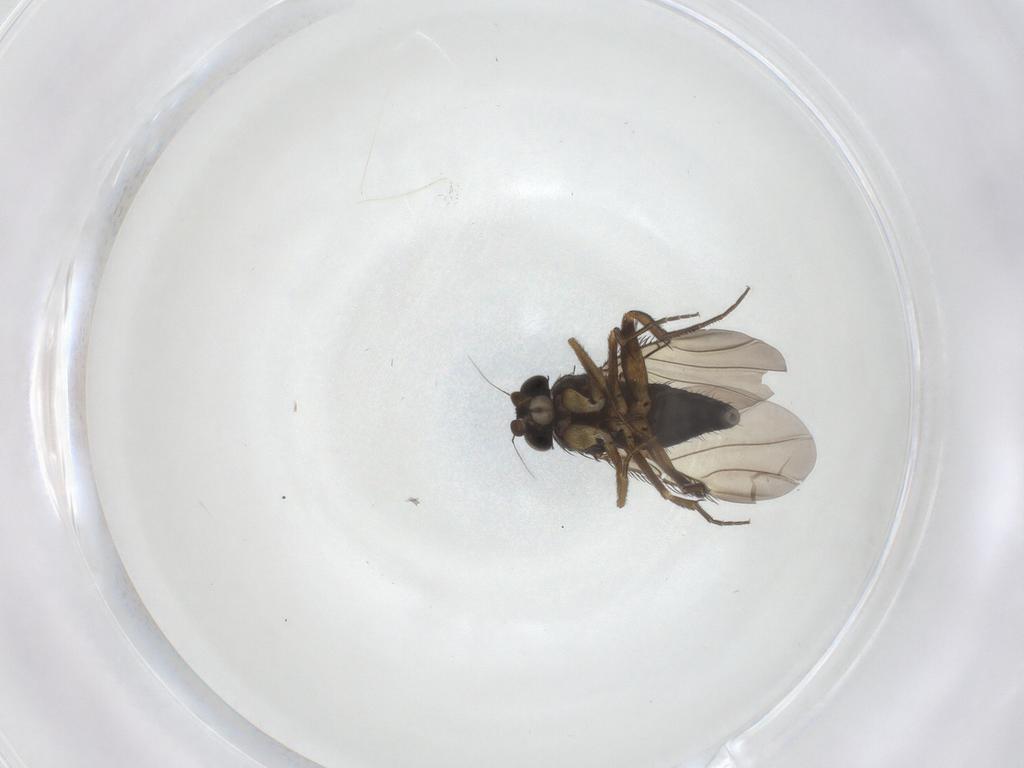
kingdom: Animalia
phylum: Arthropoda
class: Insecta
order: Diptera
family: Phoridae
